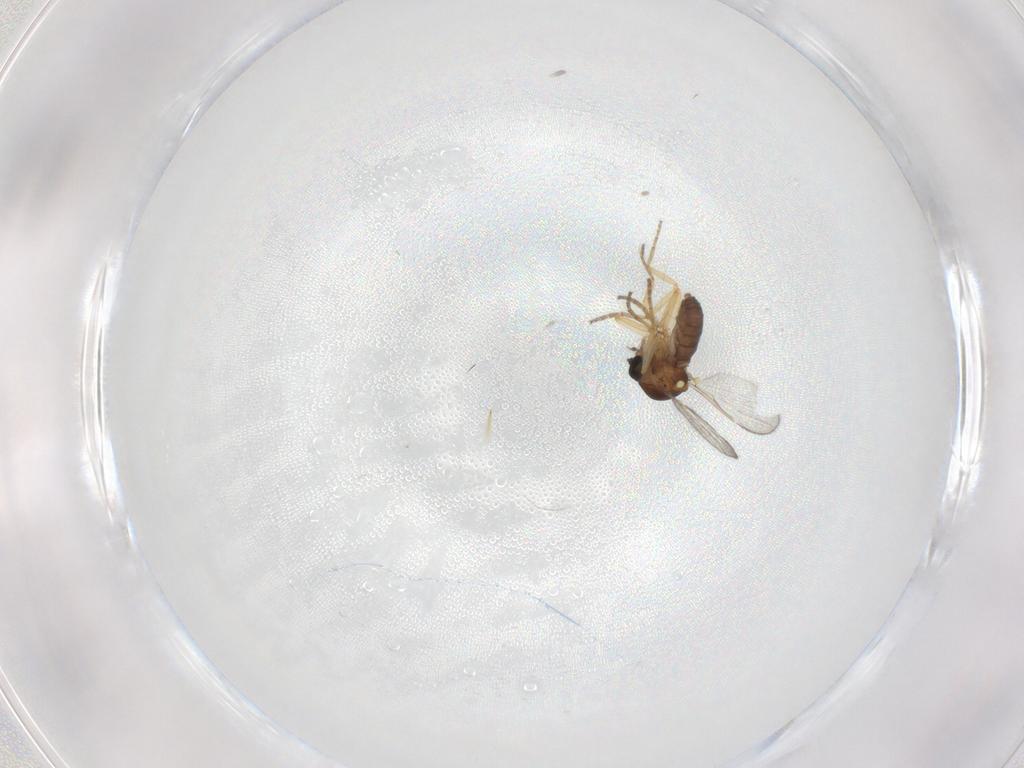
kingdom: Animalia
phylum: Arthropoda
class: Insecta
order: Diptera
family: Ceratopogonidae
